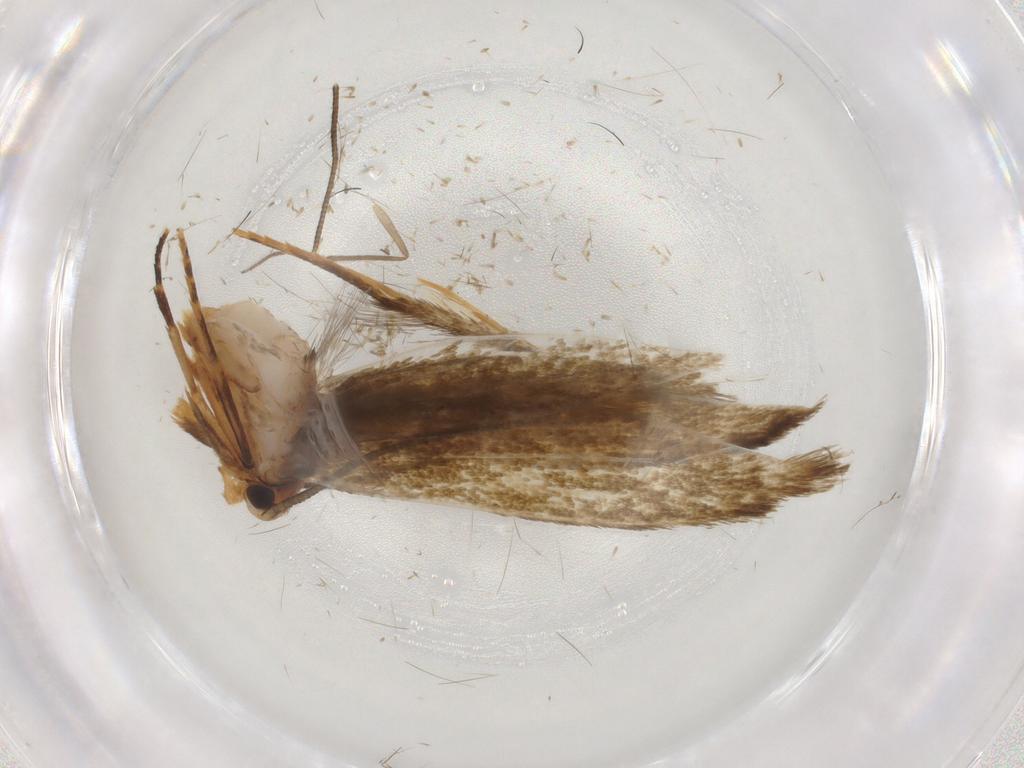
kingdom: Animalia
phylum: Arthropoda
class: Insecta
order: Lepidoptera
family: Tineidae
